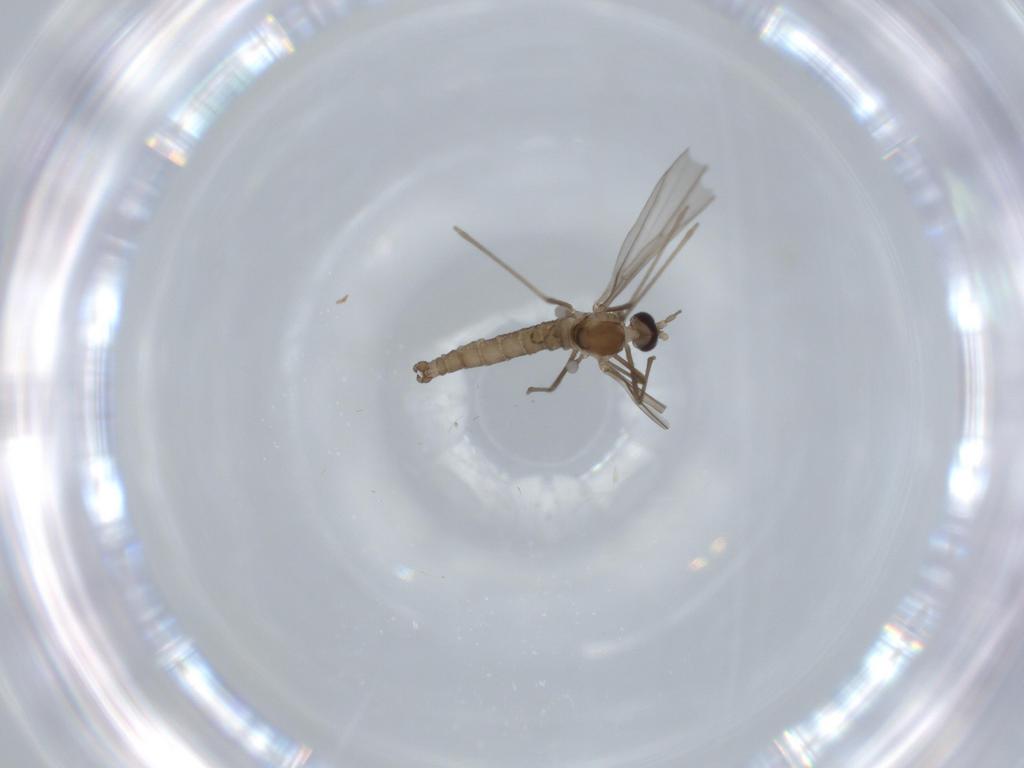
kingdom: Animalia
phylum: Arthropoda
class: Insecta
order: Diptera
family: Cecidomyiidae
